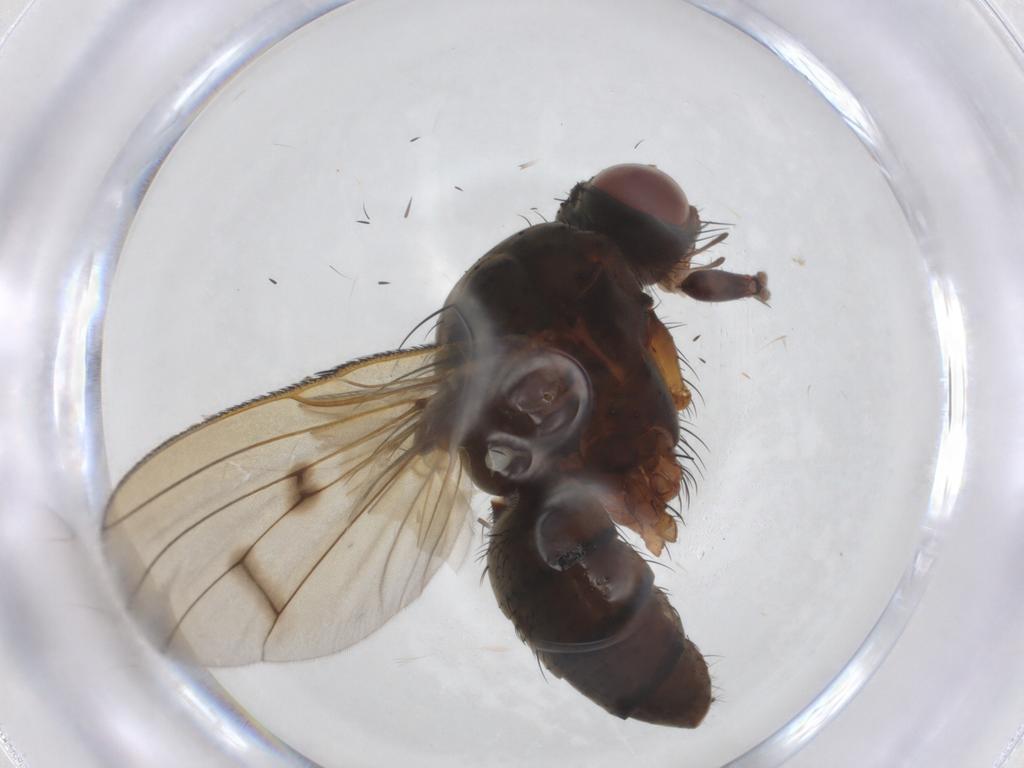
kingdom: Animalia
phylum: Arthropoda
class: Insecta
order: Diptera
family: Anthomyiidae
